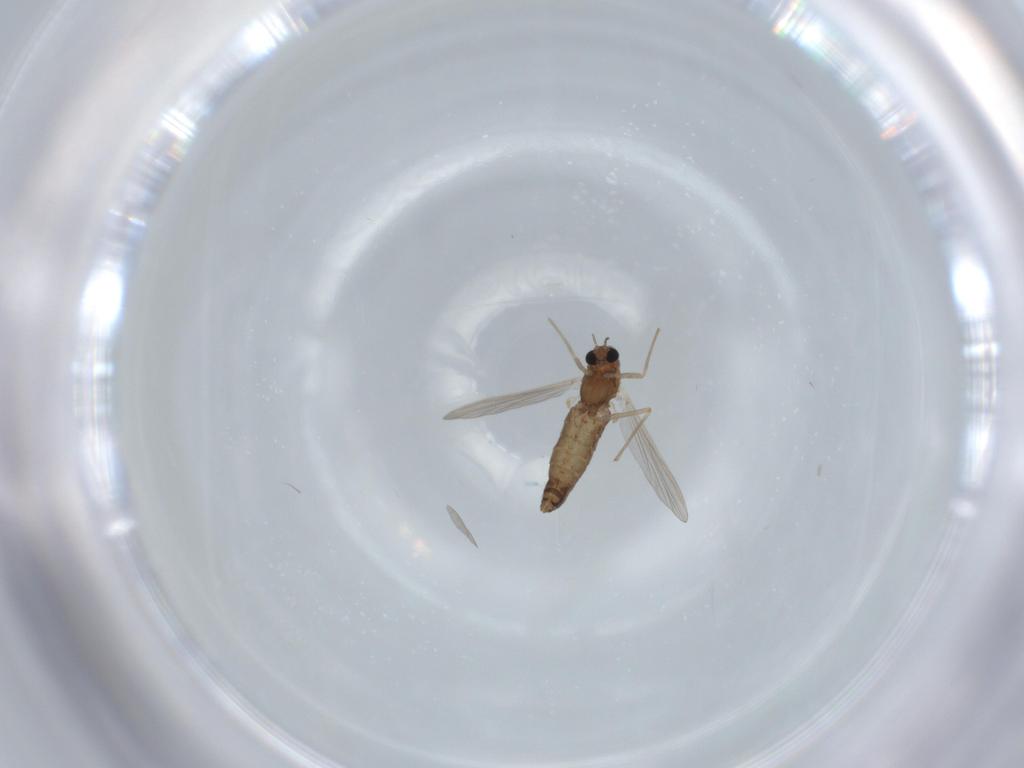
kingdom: Animalia
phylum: Arthropoda
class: Insecta
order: Diptera
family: Chironomidae
